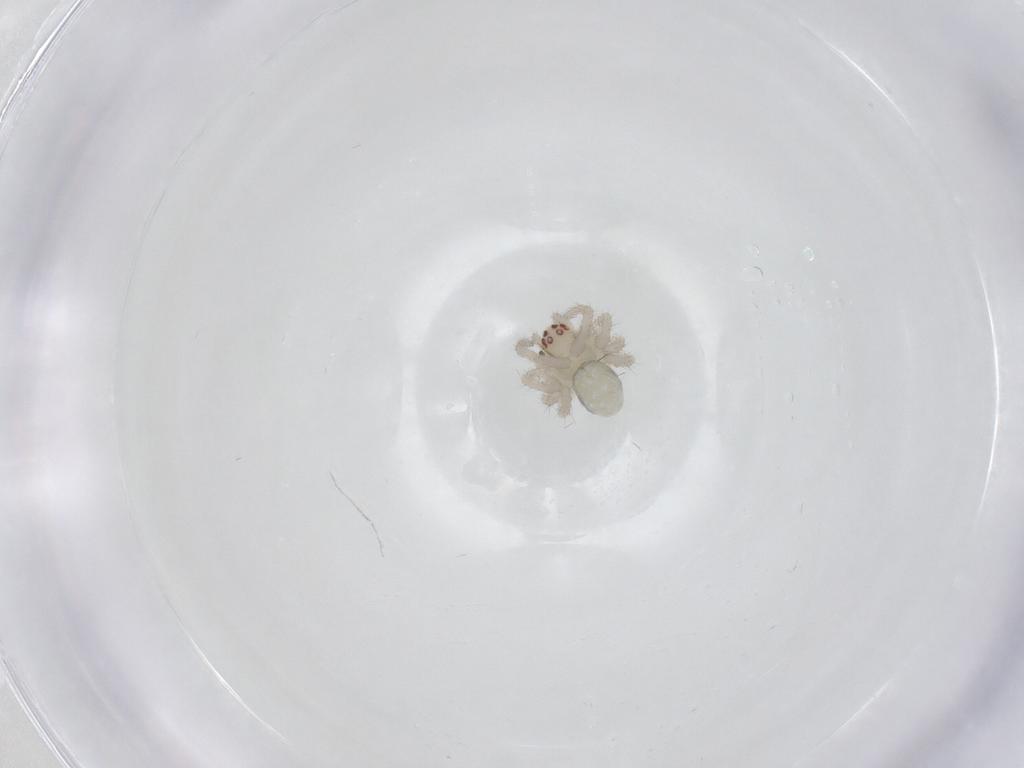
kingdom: Animalia
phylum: Arthropoda
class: Arachnida
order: Araneae
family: Theridiidae
